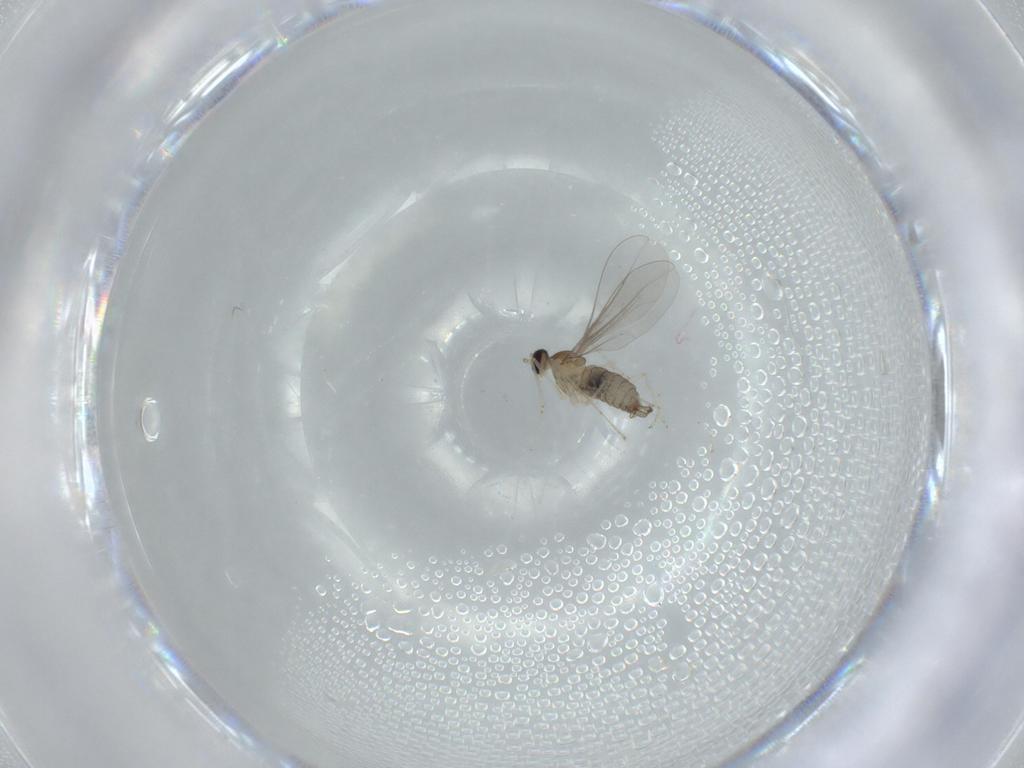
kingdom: Animalia
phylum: Arthropoda
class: Insecta
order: Diptera
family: Cecidomyiidae
